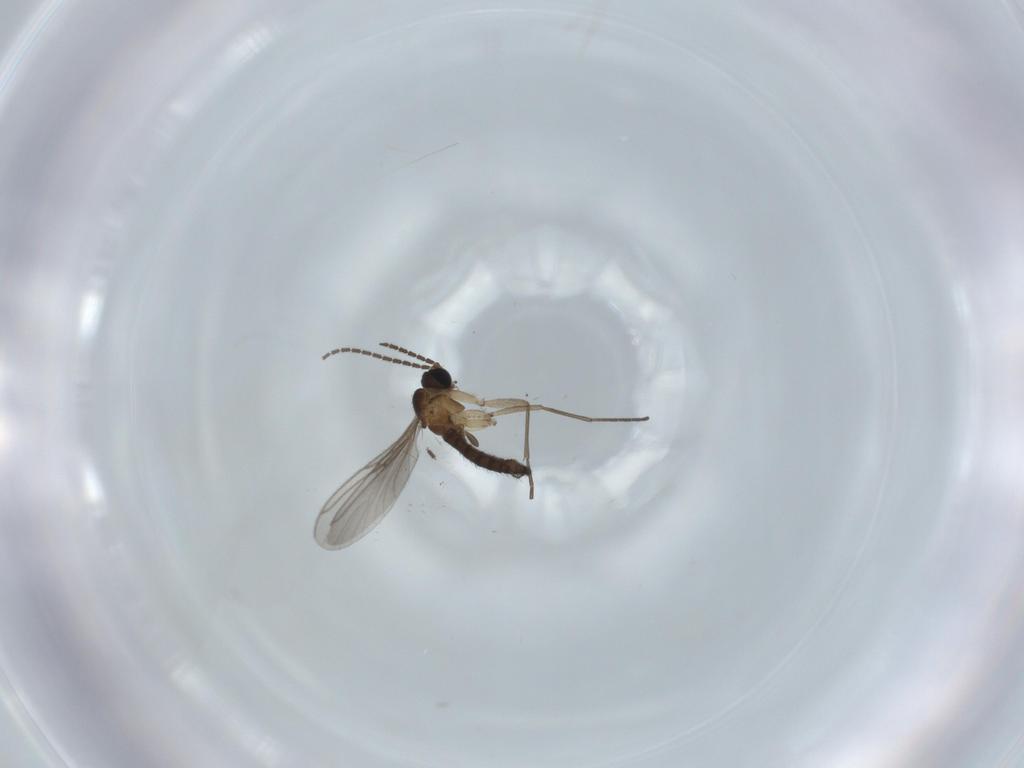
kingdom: Animalia
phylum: Arthropoda
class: Insecta
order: Diptera
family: Sciaridae
